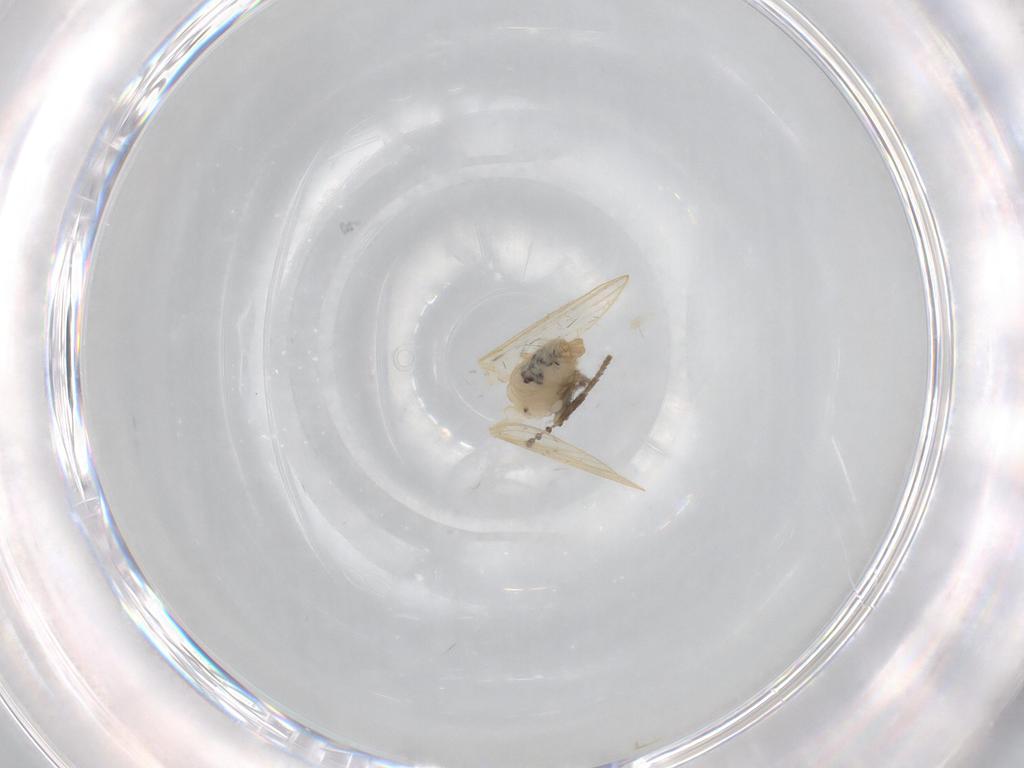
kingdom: Animalia
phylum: Arthropoda
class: Insecta
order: Diptera
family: Psychodidae
